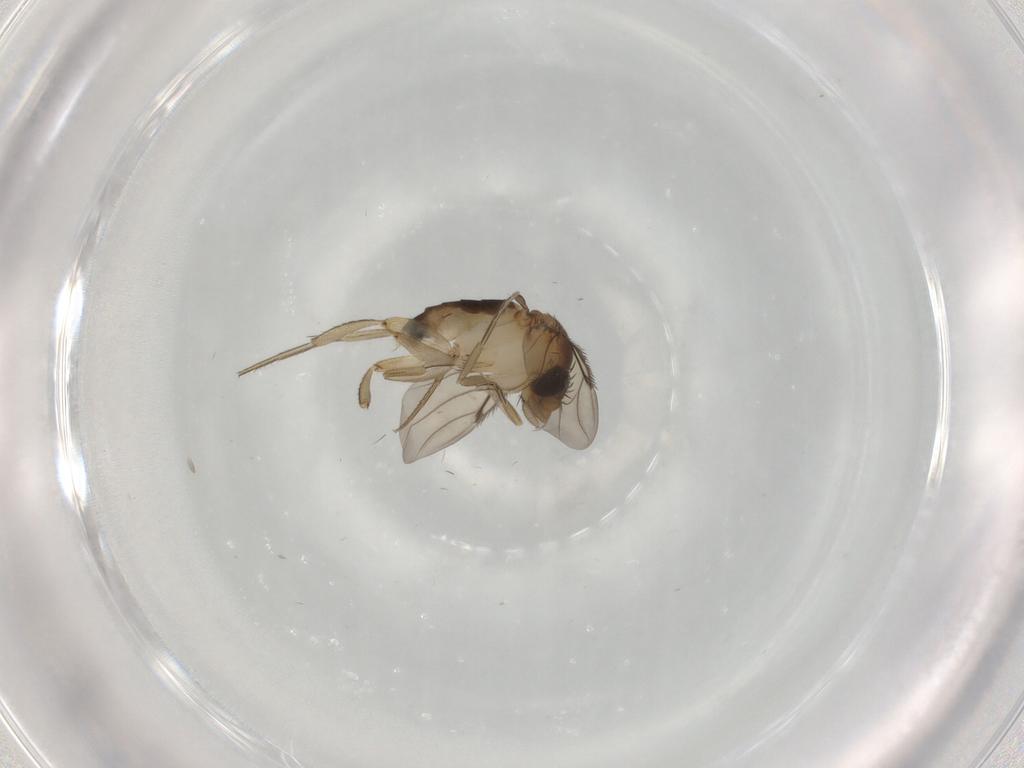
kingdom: Animalia
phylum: Arthropoda
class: Insecta
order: Diptera
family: Phoridae
